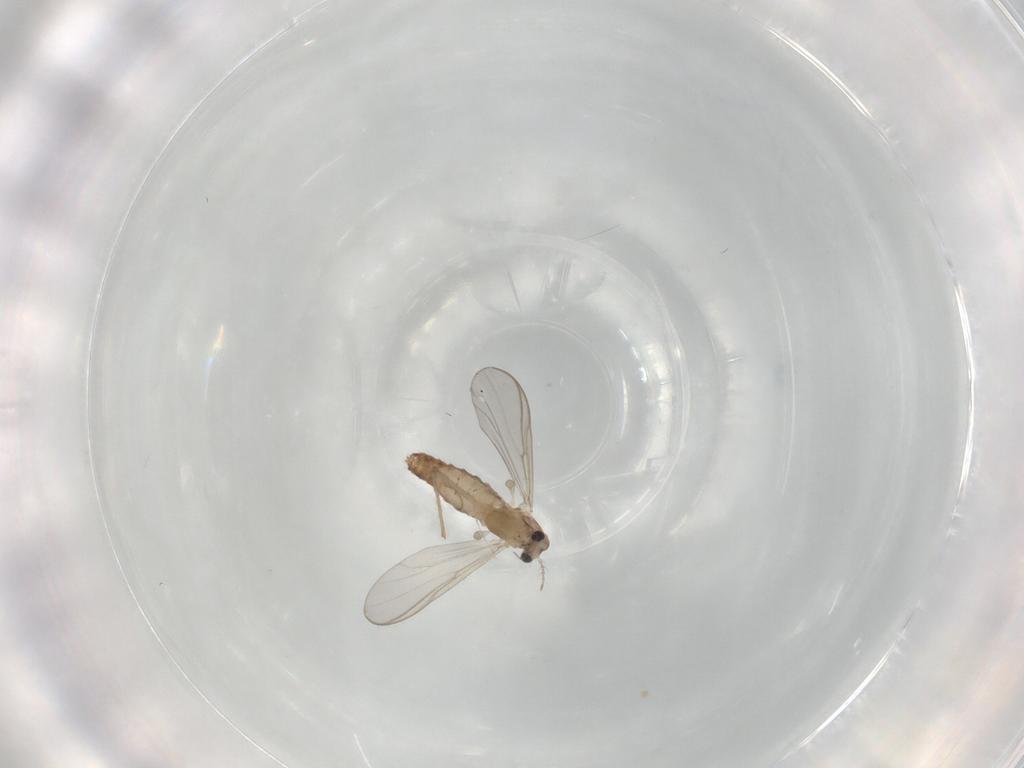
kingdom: Animalia
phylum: Arthropoda
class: Insecta
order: Diptera
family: Chironomidae
